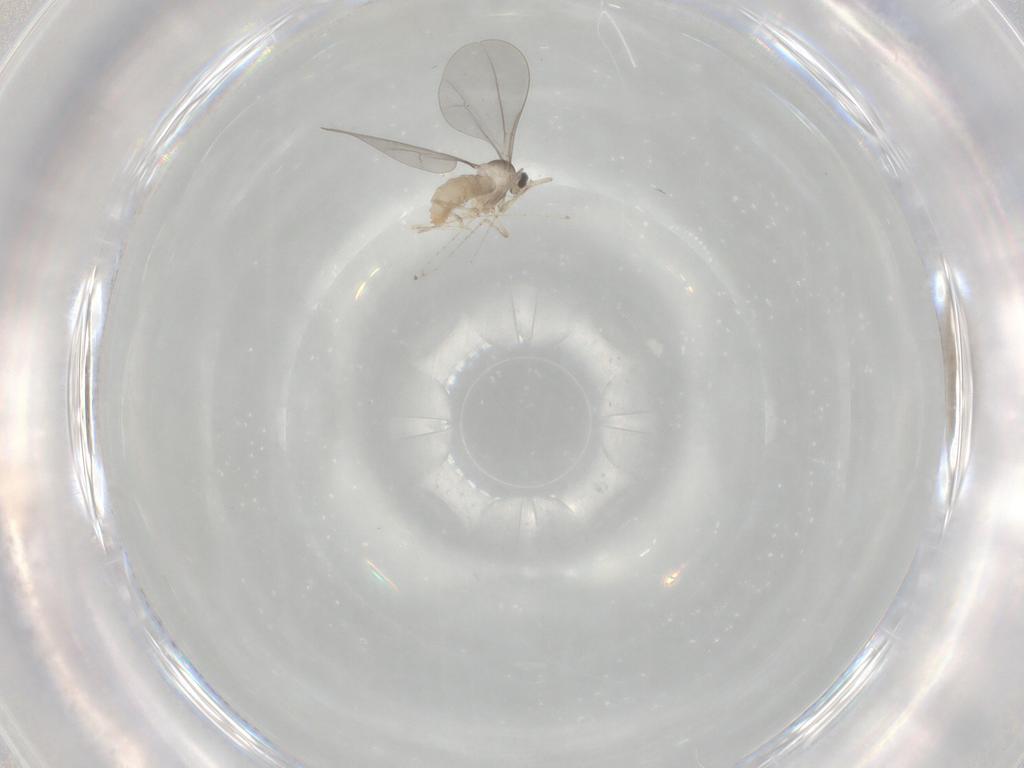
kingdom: Animalia
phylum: Arthropoda
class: Insecta
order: Diptera
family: Cecidomyiidae
